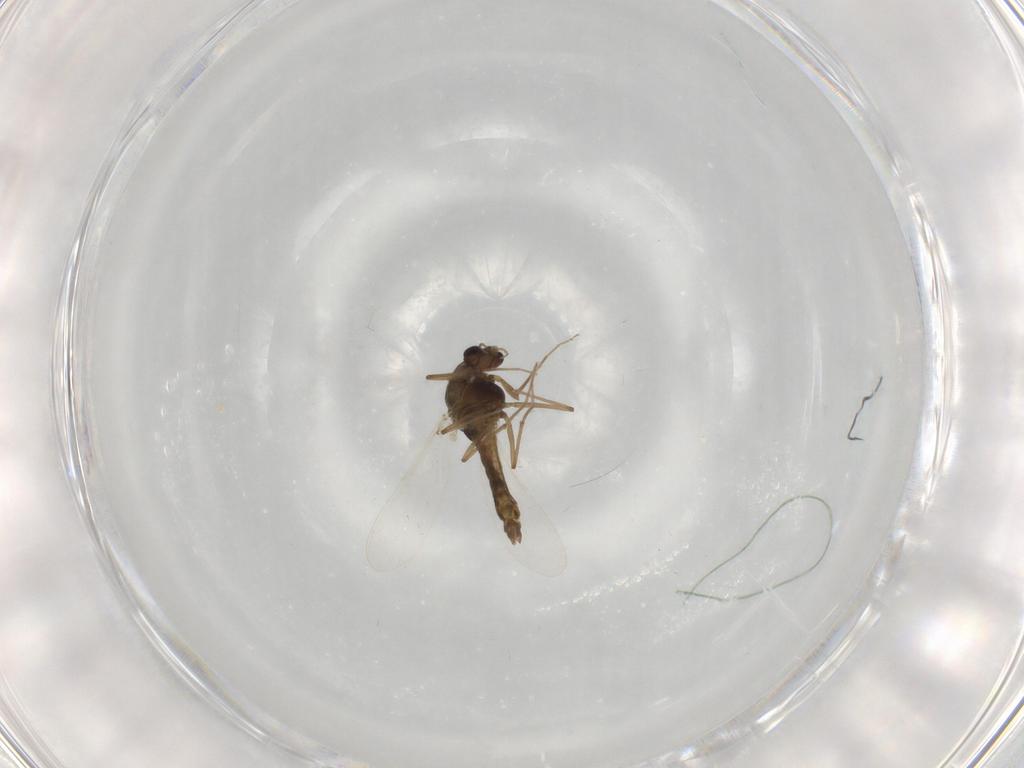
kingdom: Animalia
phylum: Arthropoda
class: Insecta
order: Diptera
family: Chironomidae
